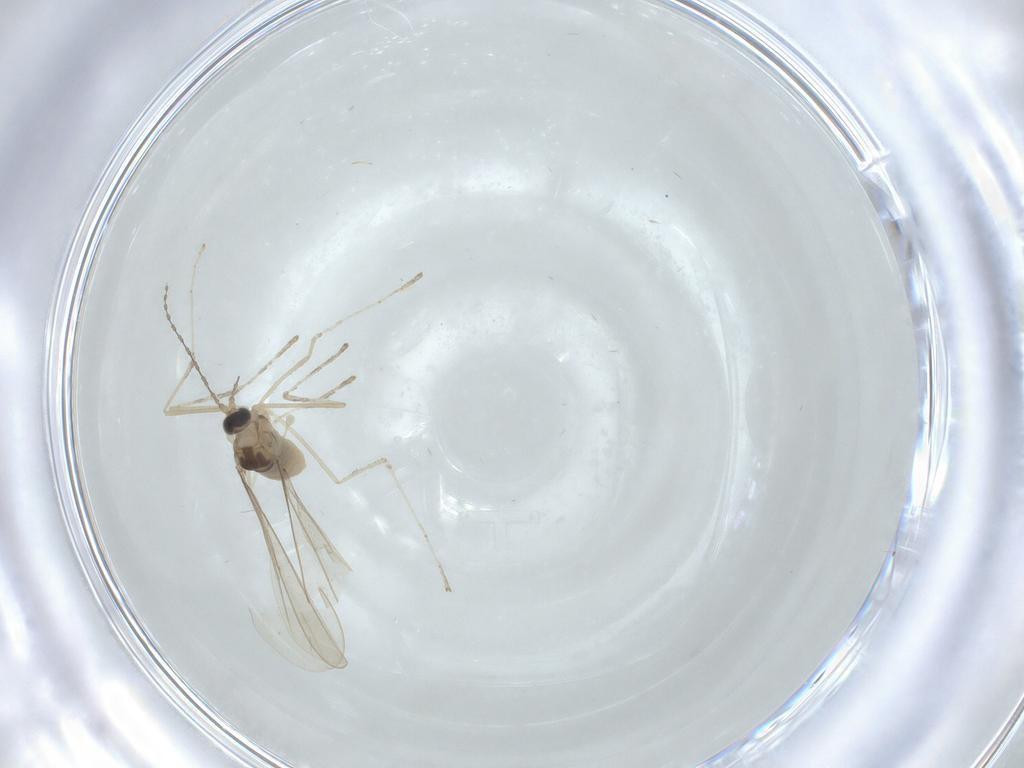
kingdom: Animalia
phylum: Arthropoda
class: Insecta
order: Diptera
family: Cecidomyiidae
